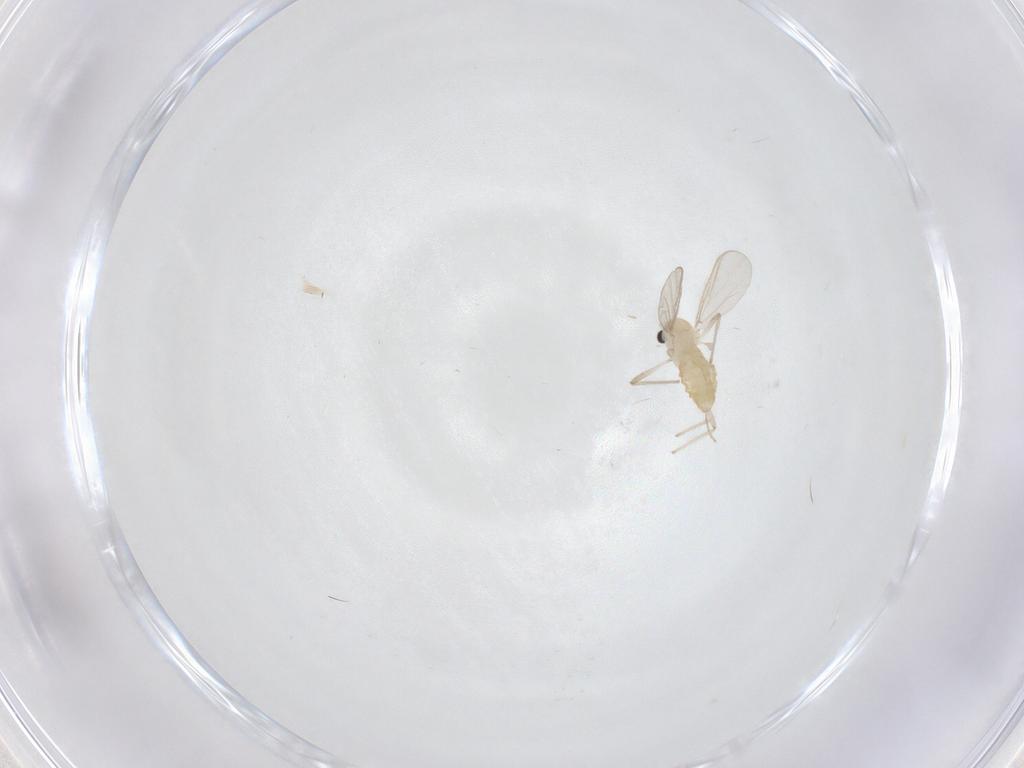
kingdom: Animalia
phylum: Arthropoda
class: Insecta
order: Diptera
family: Chironomidae
